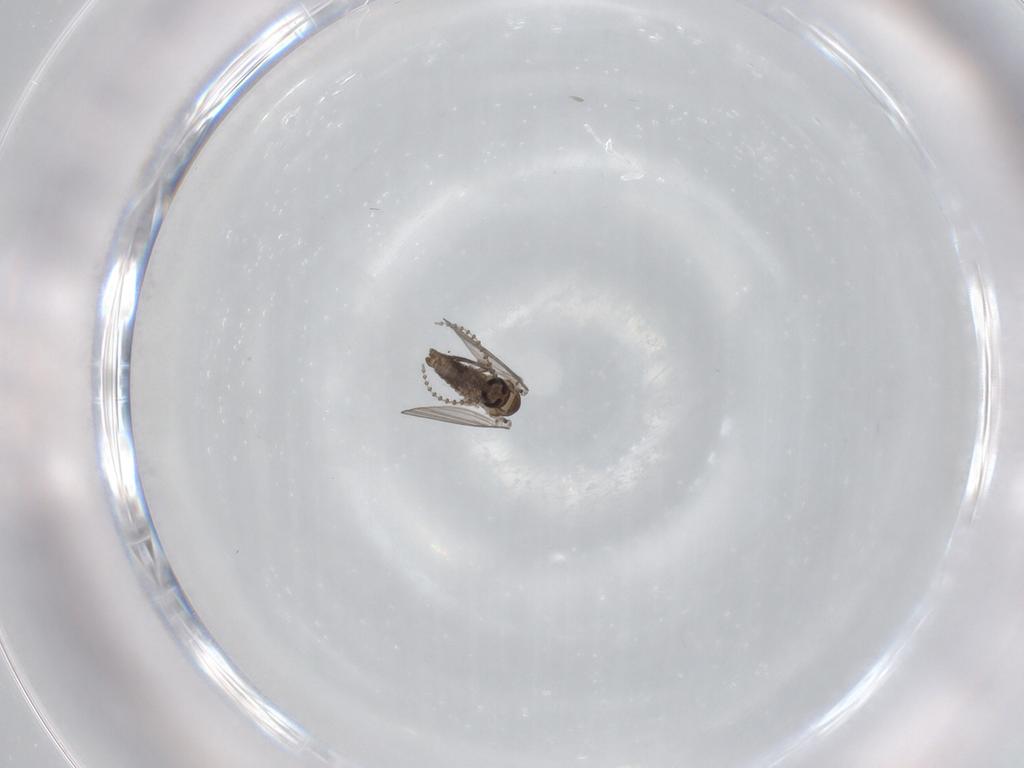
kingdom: Animalia
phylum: Arthropoda
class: Insecta
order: Diptera
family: Psychodidae
